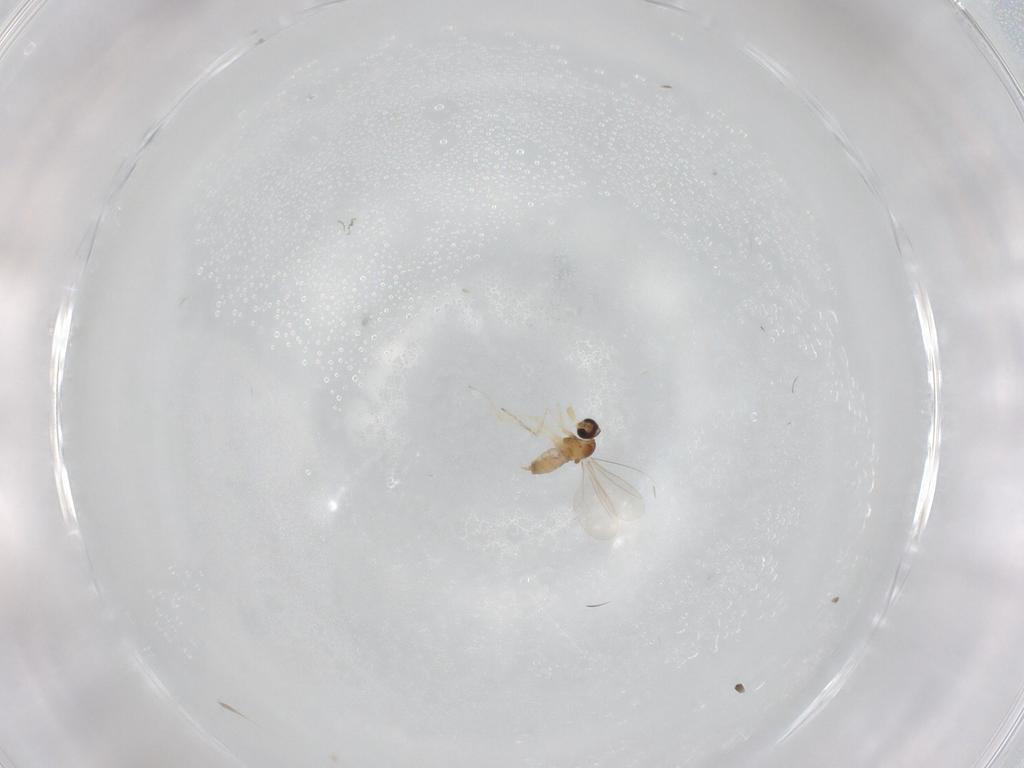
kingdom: Animalia
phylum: Arthropoda
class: Insecta
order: Diptera
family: Cecidomyiidae
